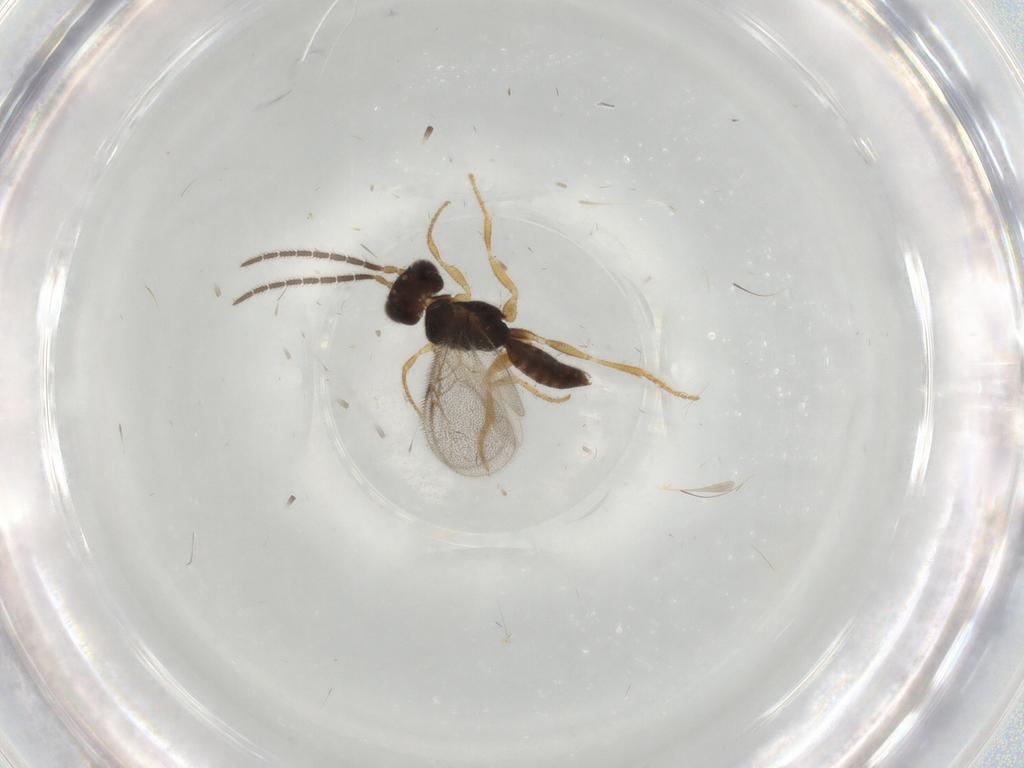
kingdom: Animalia
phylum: Arthropoda
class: Insecta
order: Hymenoptera
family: Dryinidae
